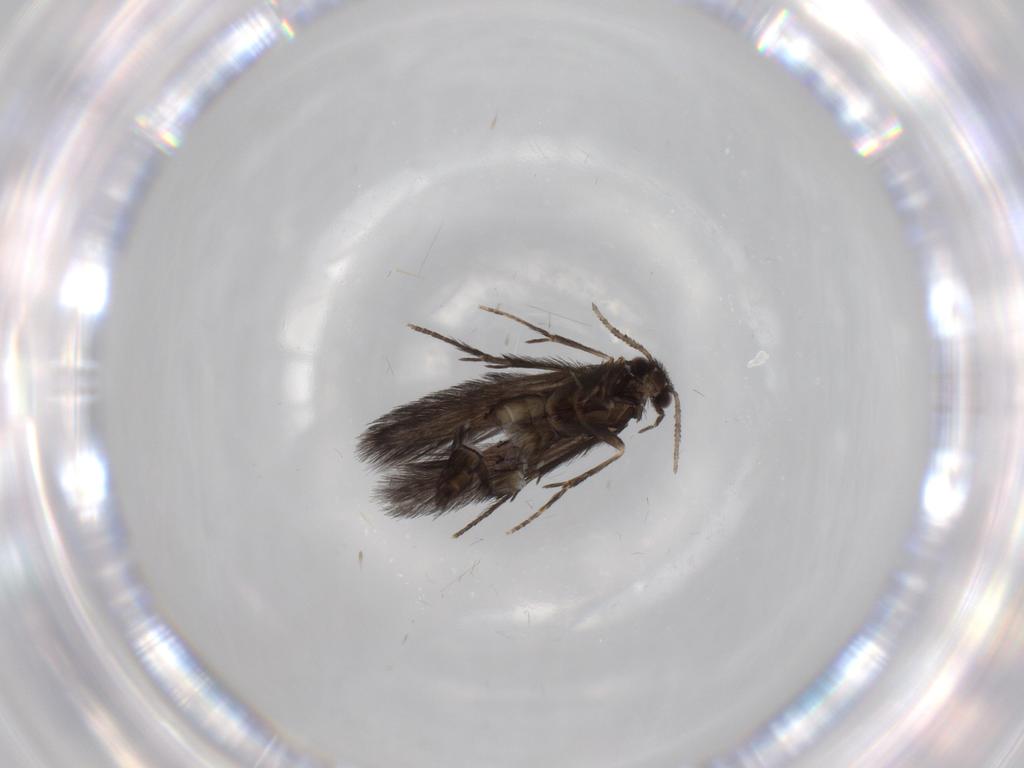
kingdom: Animalia
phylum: Arthropoda
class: Insecta
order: Trichoptera
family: Hydroptilidae
